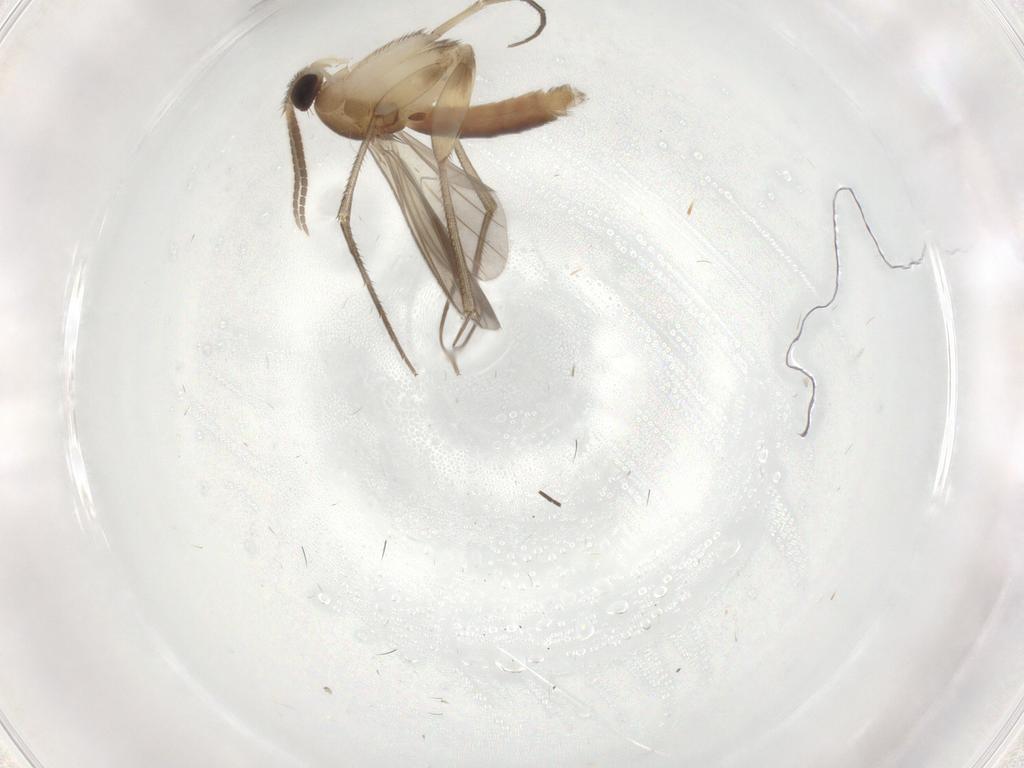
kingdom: Animalia
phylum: Arthropoda
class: Insecta
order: Diptera
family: Mycetophilidae
